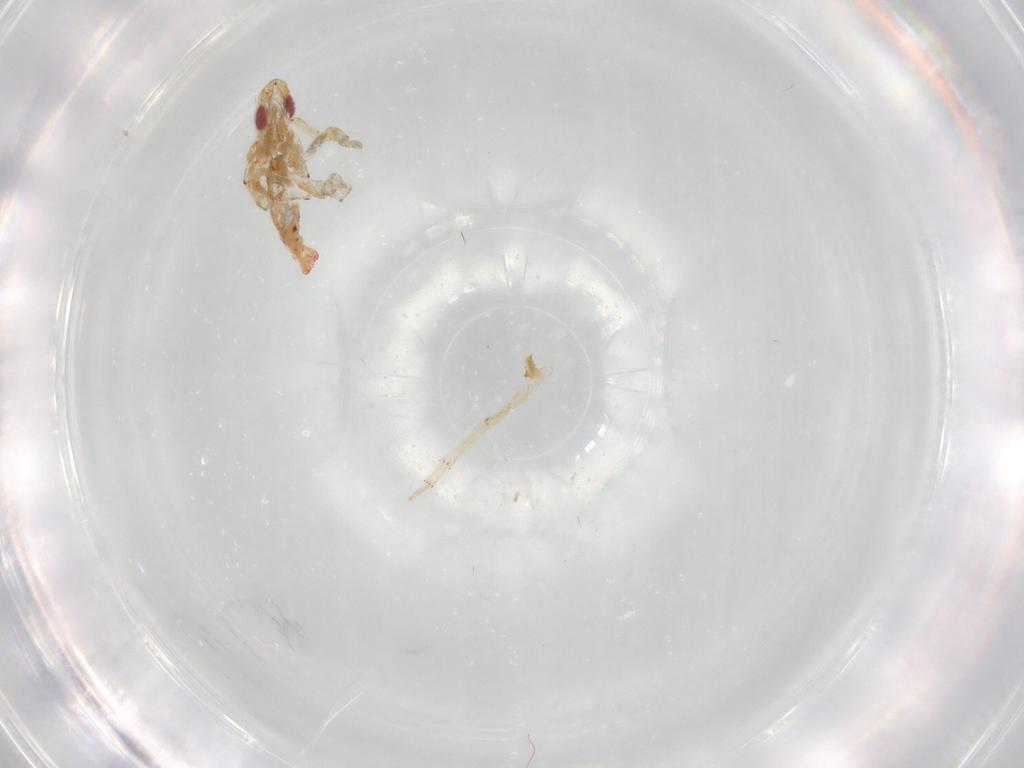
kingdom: Animalia
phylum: Arthropoda
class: Insecta
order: Hemiptera
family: Tropiduchidae
